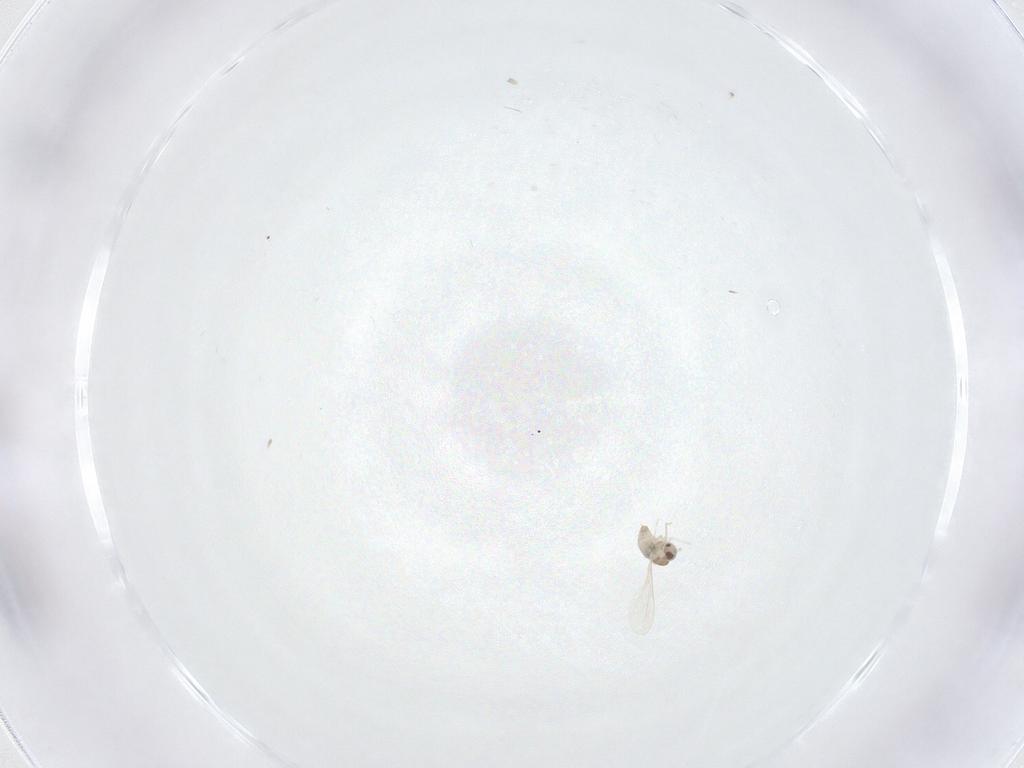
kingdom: Animalia
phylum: Arthropoda
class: Insecta
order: Diptera
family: Cecidomyiidae
